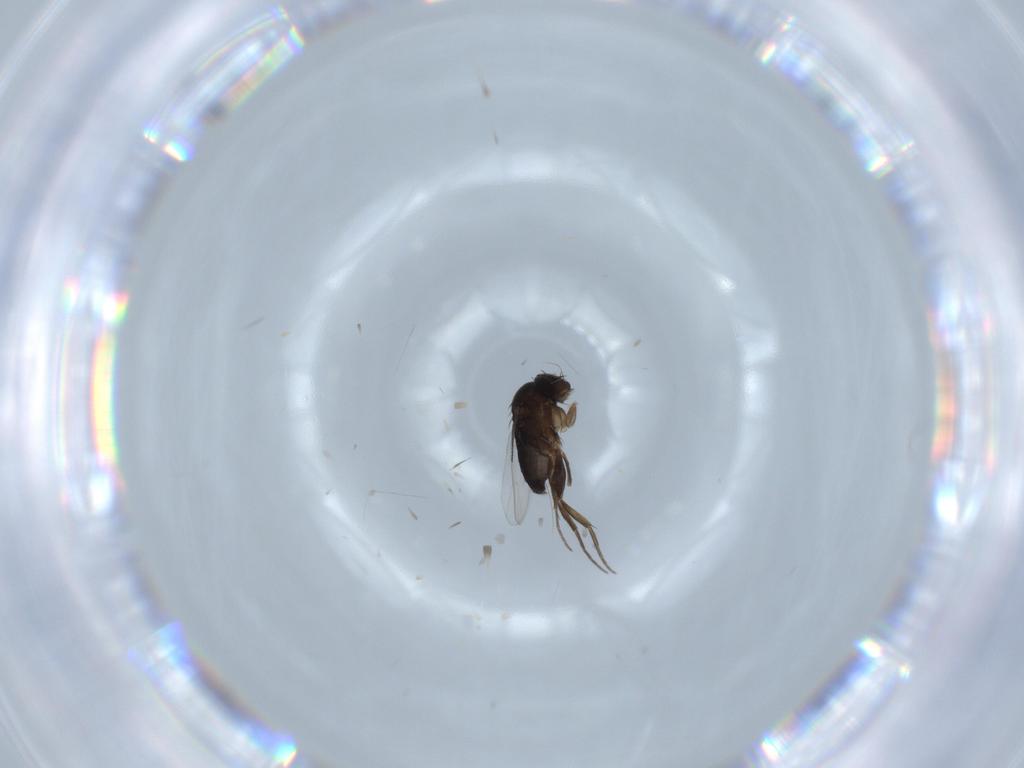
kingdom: Animalia
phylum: Arthropoda
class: Insecta
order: Diptera
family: Phoridae
